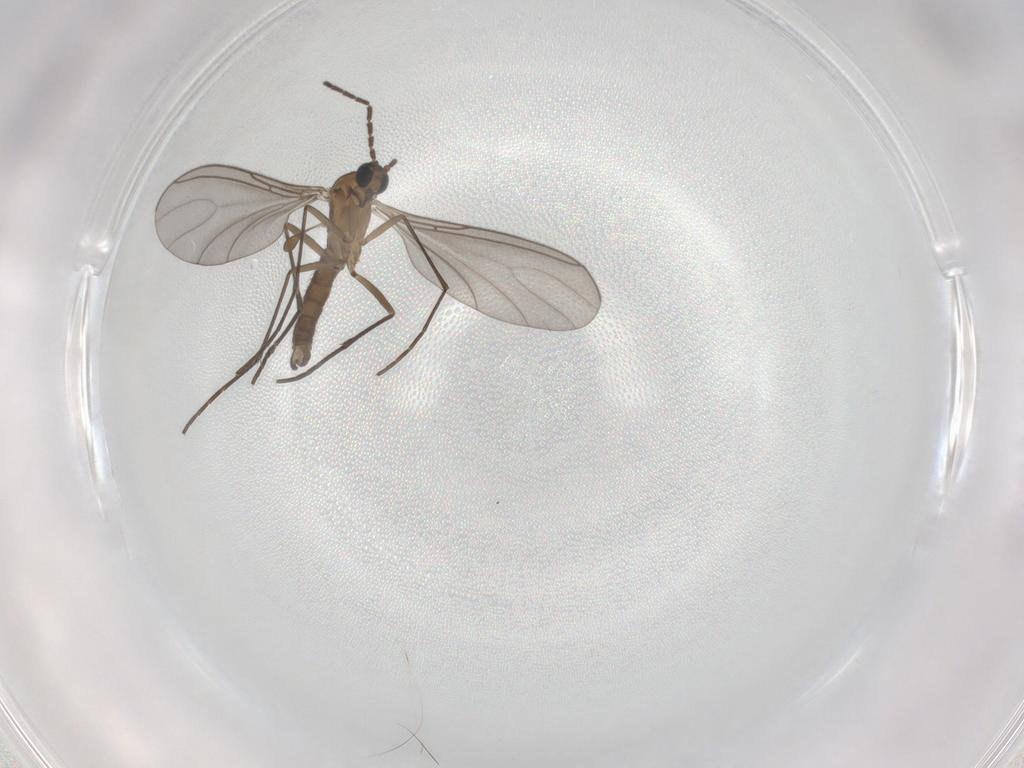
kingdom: Animalia
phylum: Arthropoda
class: Insecta
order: Diptera
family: Sciaridae
